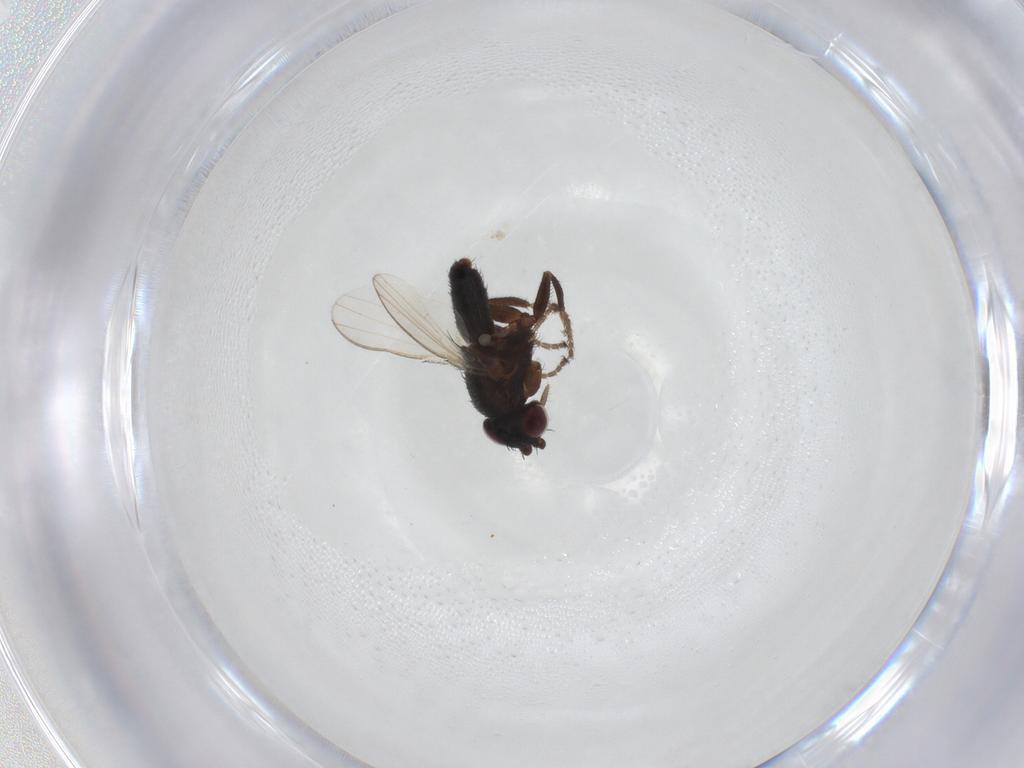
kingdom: Animalia
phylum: Arthropoda
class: Insecta
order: Diptera
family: Milichiidae
